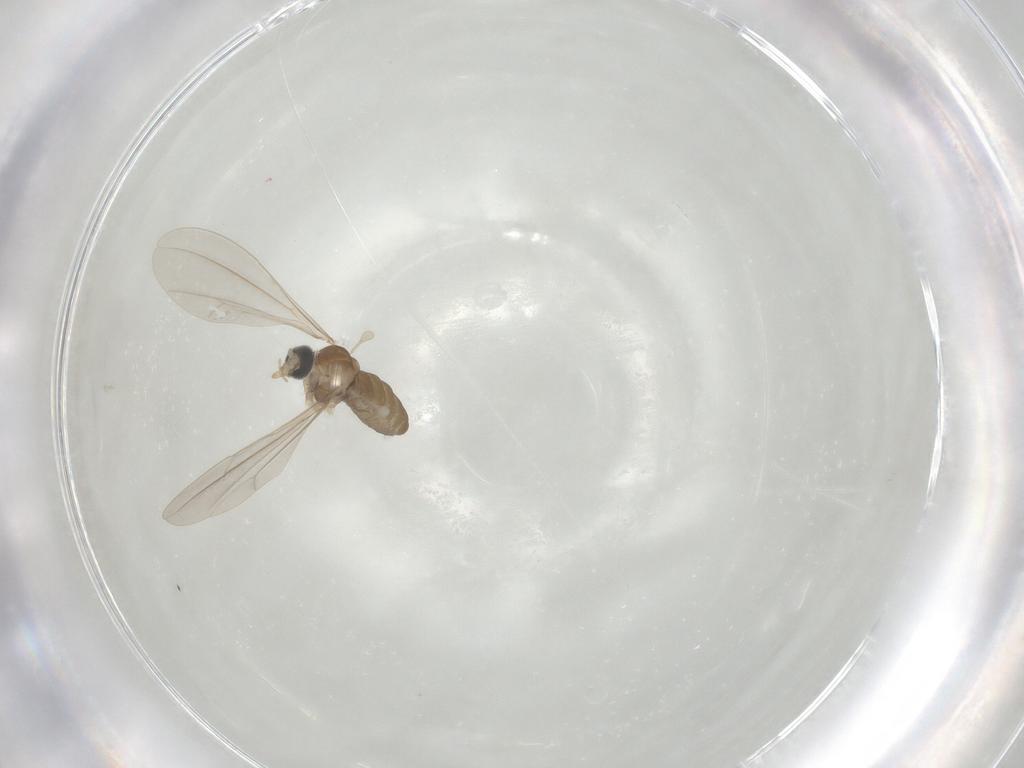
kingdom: Animalia
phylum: Arthropoda
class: Insecta
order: Diptera
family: Cecidomyiidae
